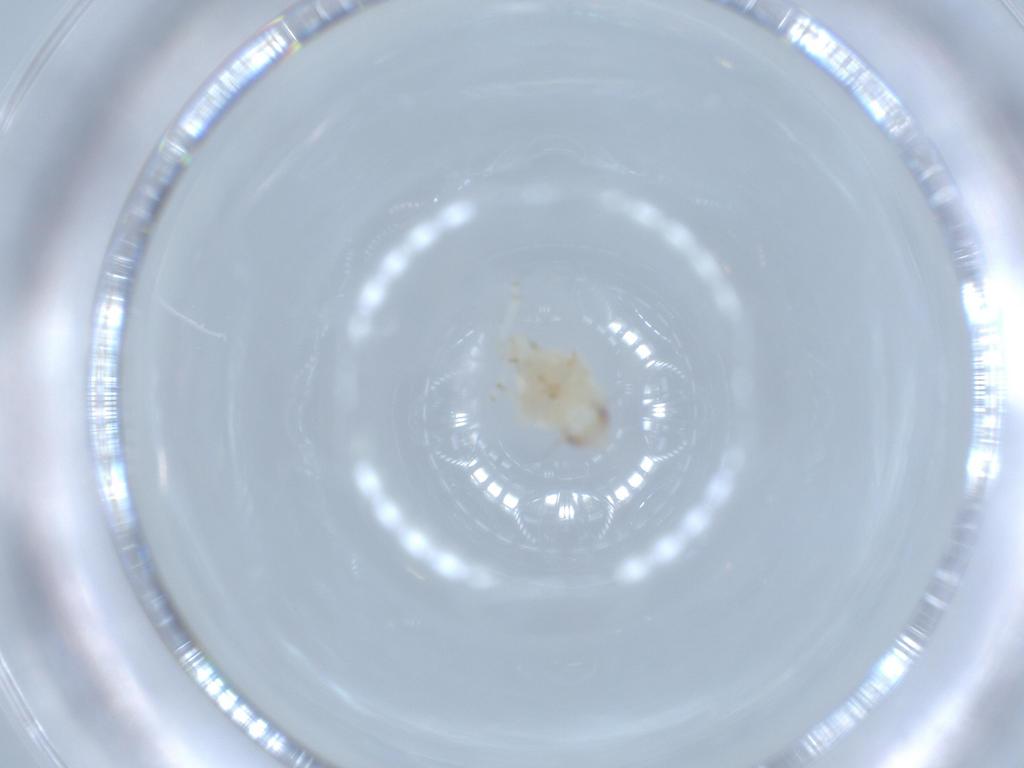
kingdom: Animalia
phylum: Arthropoda
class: Insecta
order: Hemiptera
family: Nogodinidae
